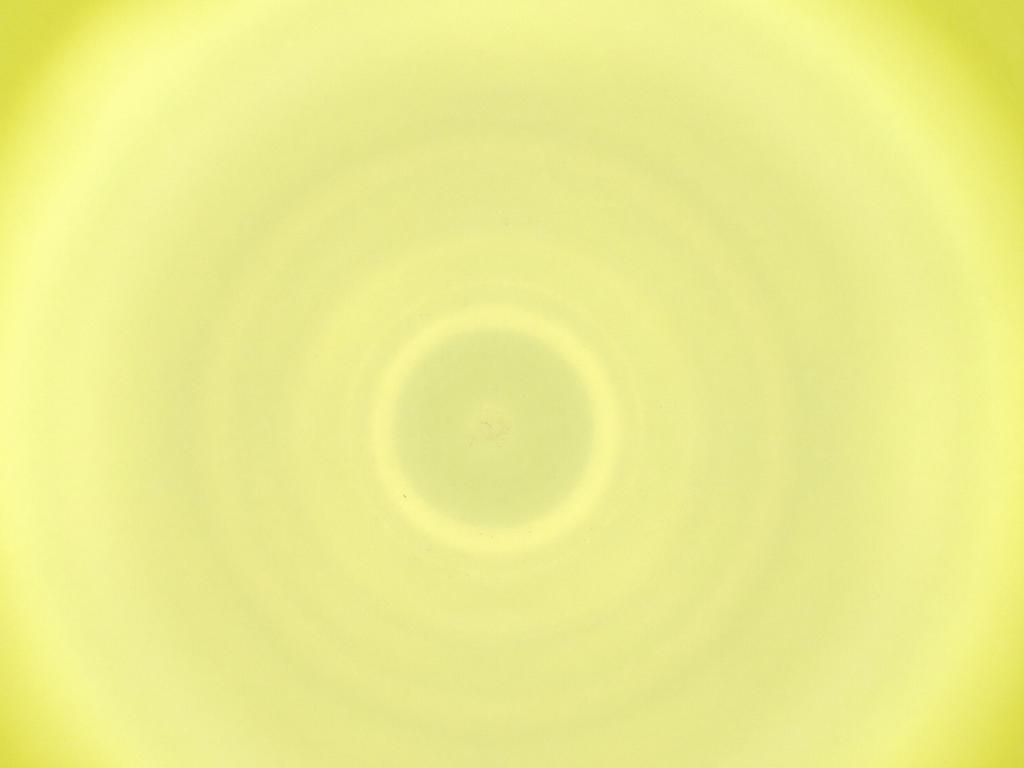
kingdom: Animalia
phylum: Arthropoda
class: Insecta
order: Diptera
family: Cecidomyiidae
